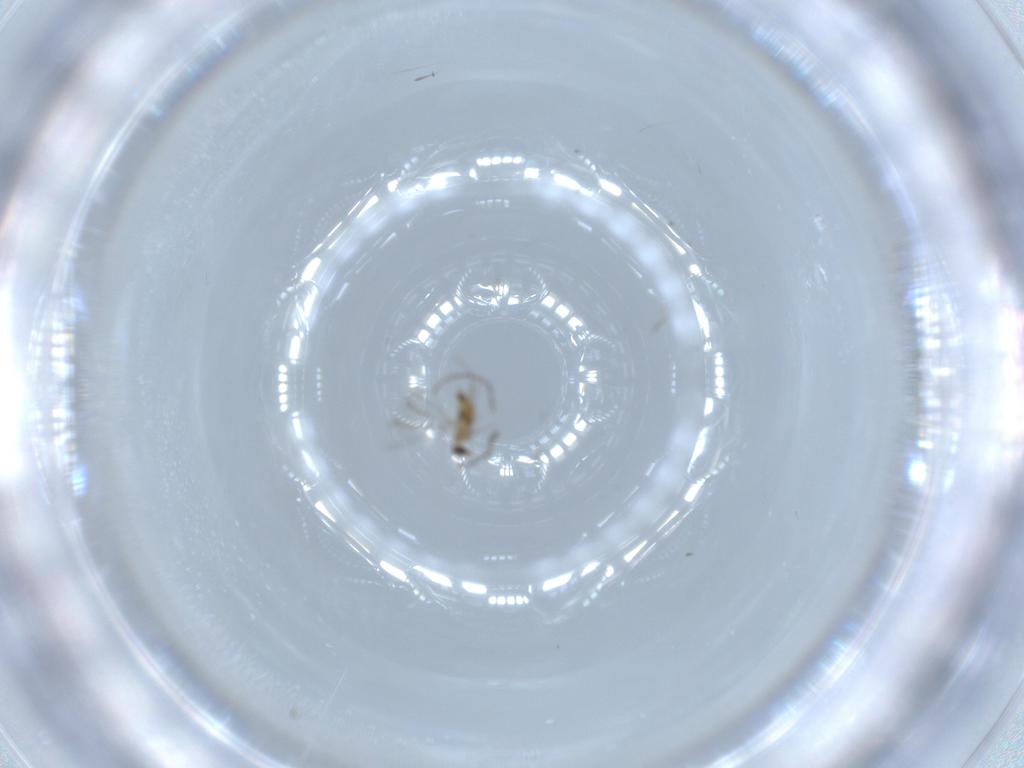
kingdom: Animalia
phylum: Arthropoda
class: Insecta
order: Hymenoptera
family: Mymaridae
